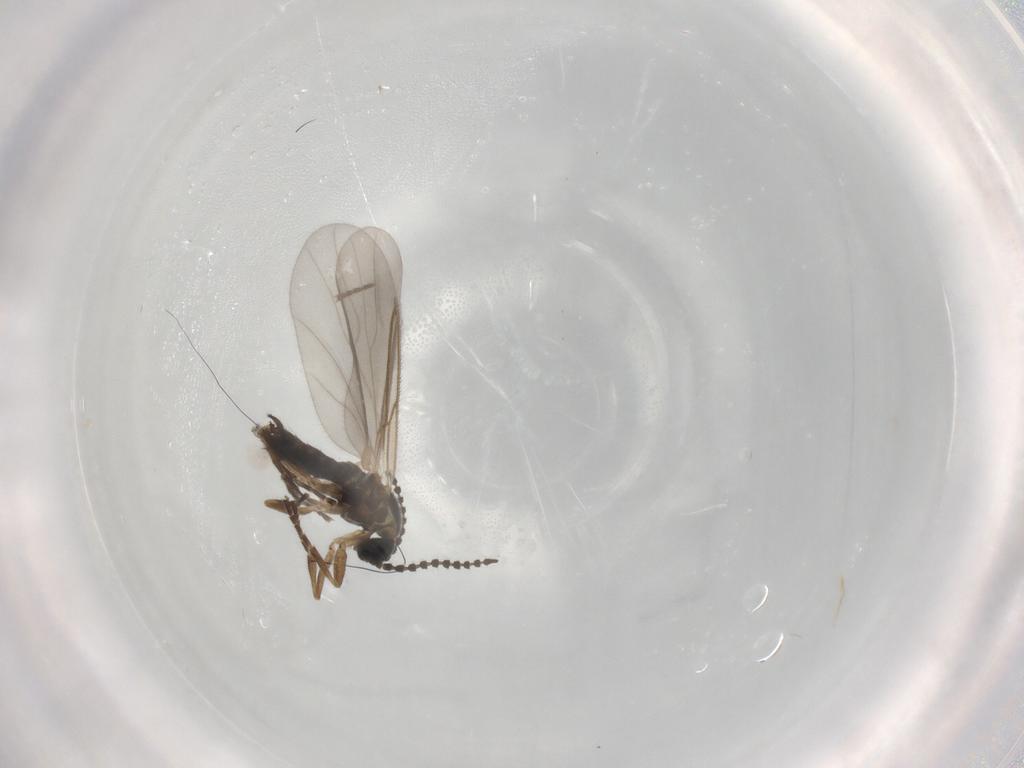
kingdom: Animalia
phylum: Arthropoda
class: Insecta
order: Diptera
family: Scatopsidae
